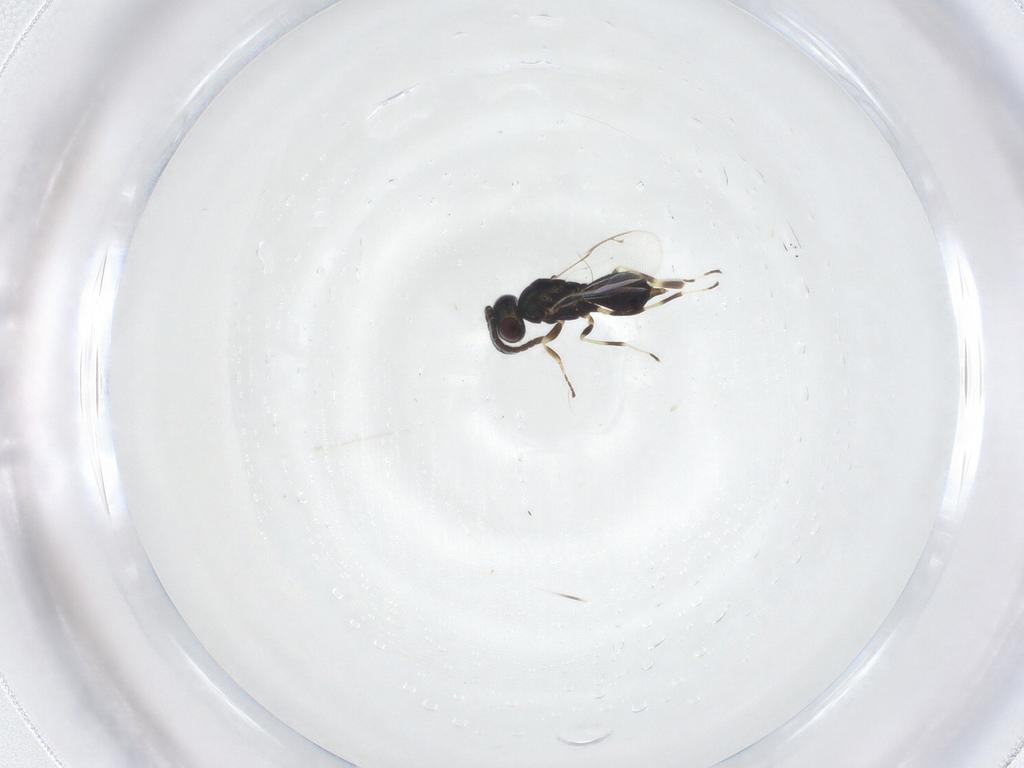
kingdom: Animalia
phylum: Arthropoda
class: Insecta
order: Hymenoptera
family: Eupelmidae
